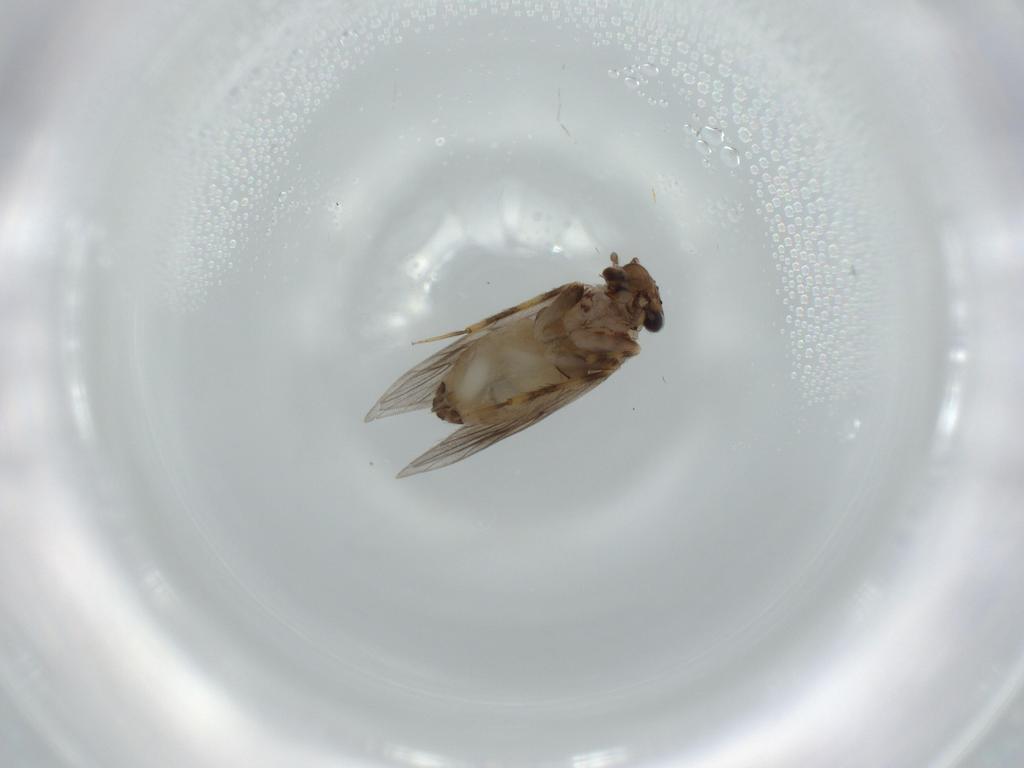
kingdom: Animalia
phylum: Arthropoda
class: Insecta
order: Psocodea
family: Lepidopsocidae
